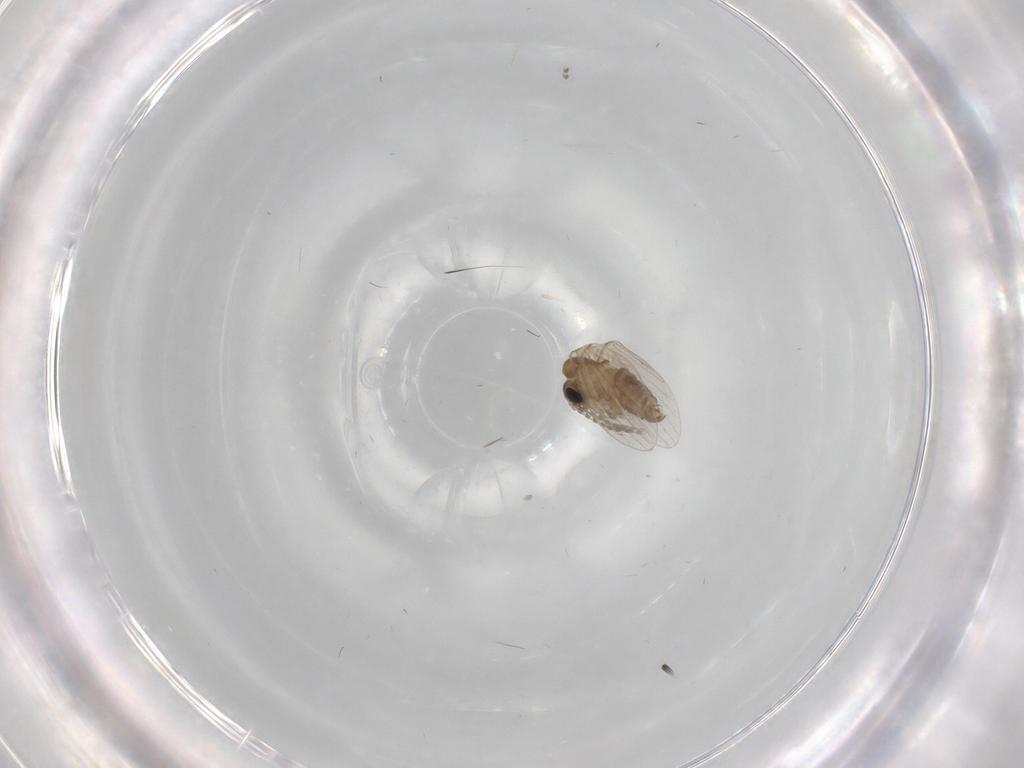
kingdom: Animalia
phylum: Arthropoda
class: Insecta
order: Diptera
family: Psychodidae
